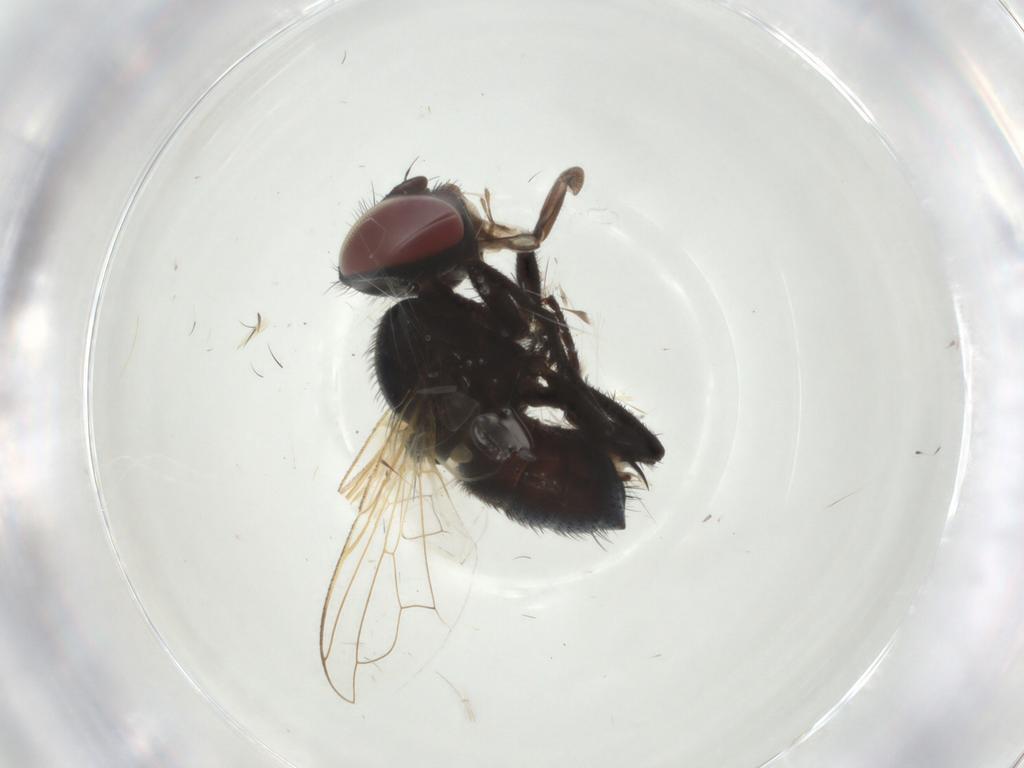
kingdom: Animalia
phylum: Arthropoda
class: Insecta
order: Diptera
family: Tachinidae
